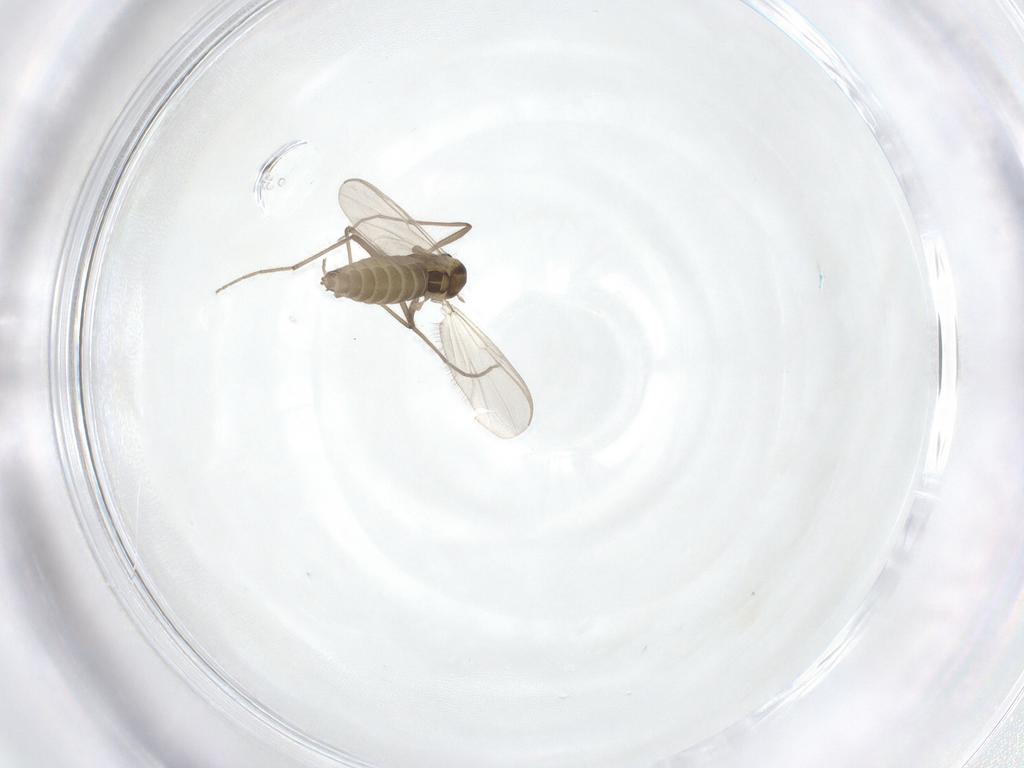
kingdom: Animalia
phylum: Arthropoda
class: Insecta
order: Diptera
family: Chironomidae
